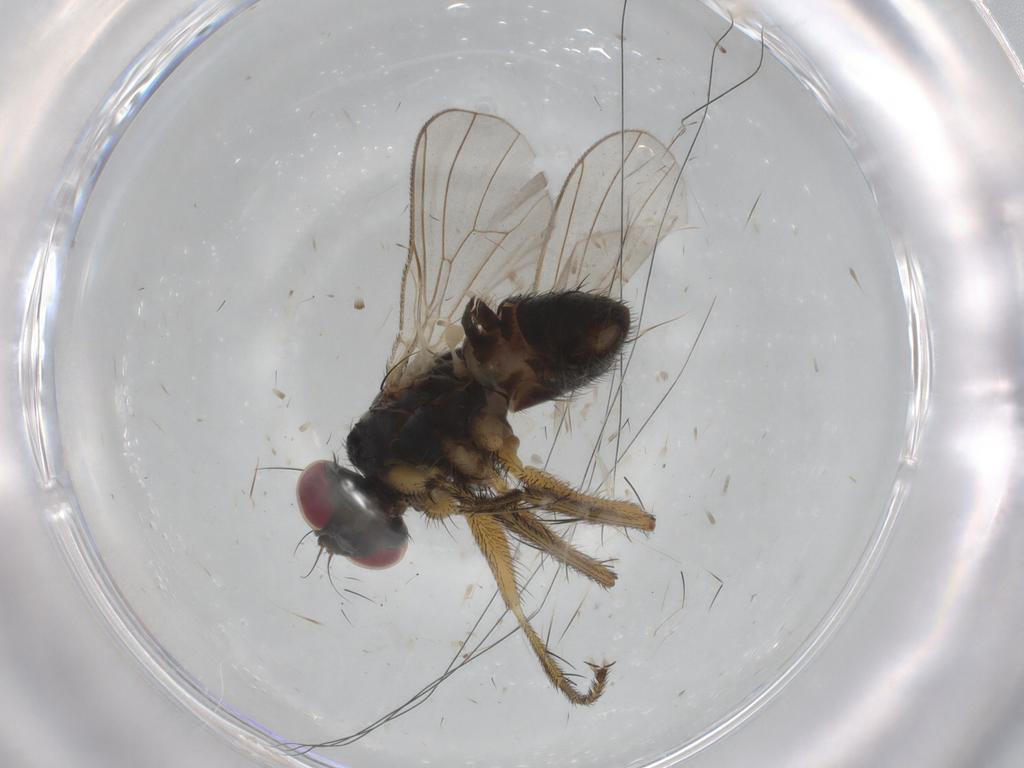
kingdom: Animalia
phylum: Arthropoda
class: Insecta
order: Diptera
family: Muscidae
